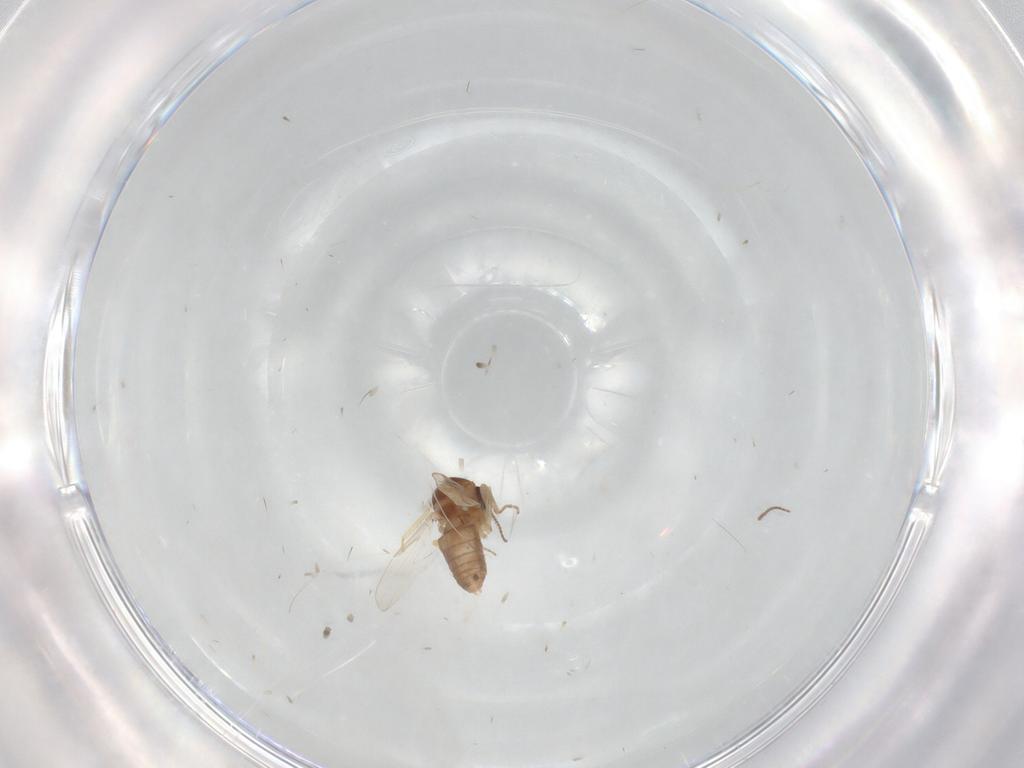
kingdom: Animalia
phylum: Arthropoda
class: Insecta
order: Diptera
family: Ceratopogonidae
